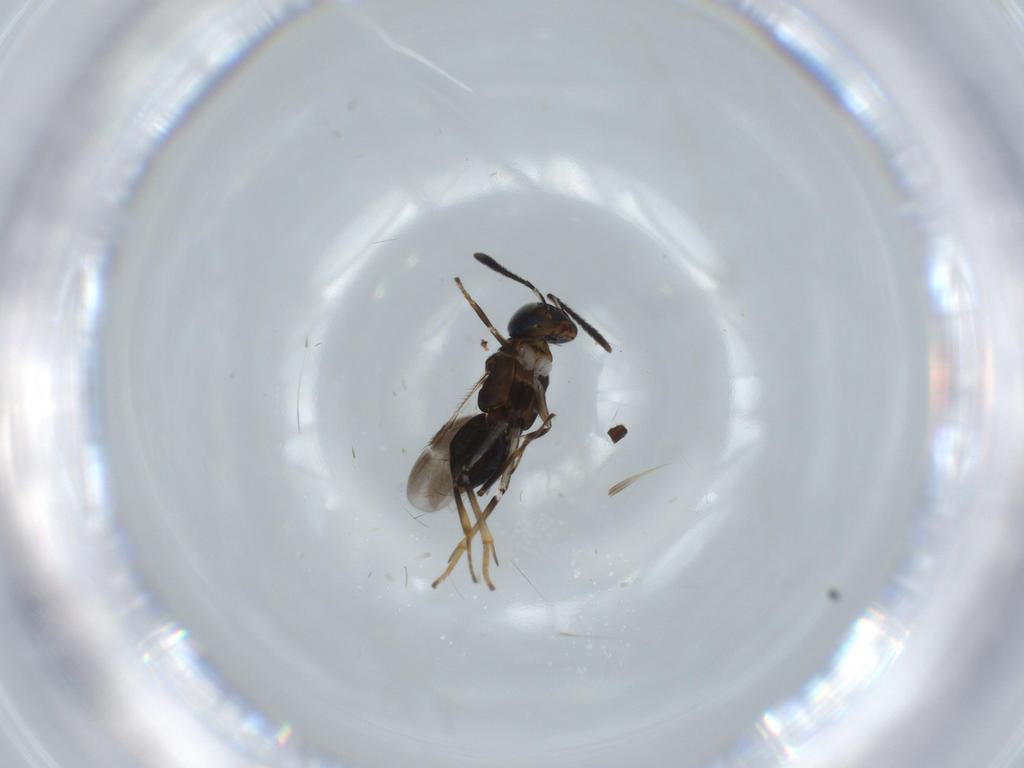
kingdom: Animalia
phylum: Arthropoda
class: Insecta
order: Hymenoptera
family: Encyrtidae
